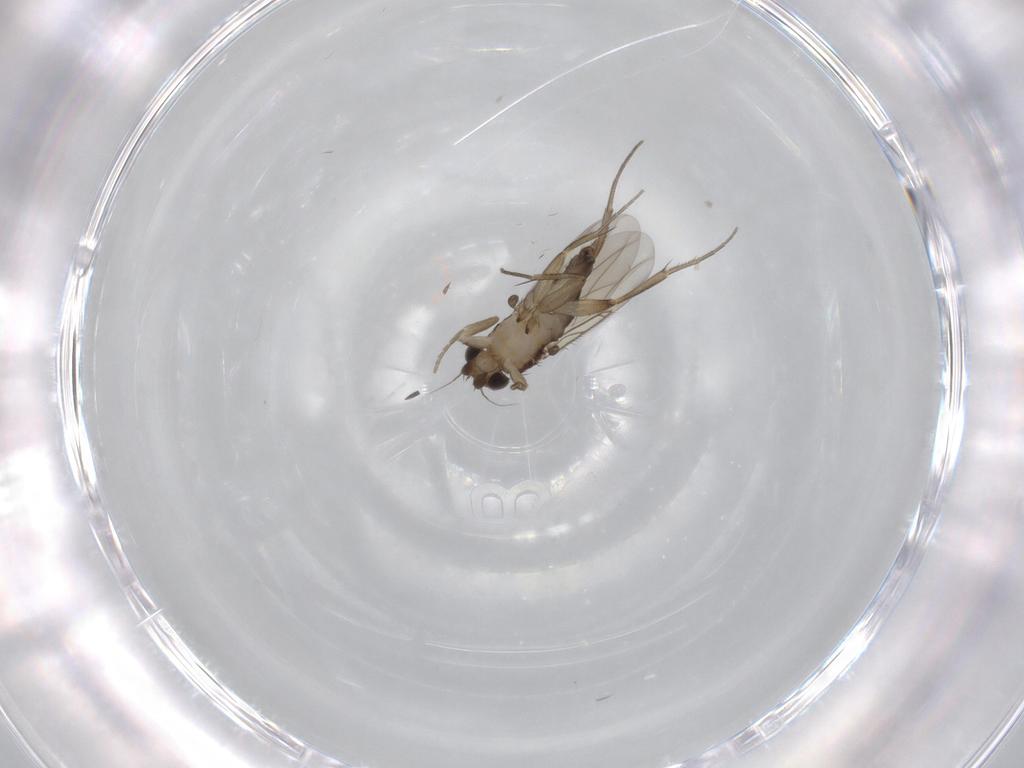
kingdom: Animalia
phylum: Arthropoda
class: Insecta
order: Diptera
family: Phoridae
